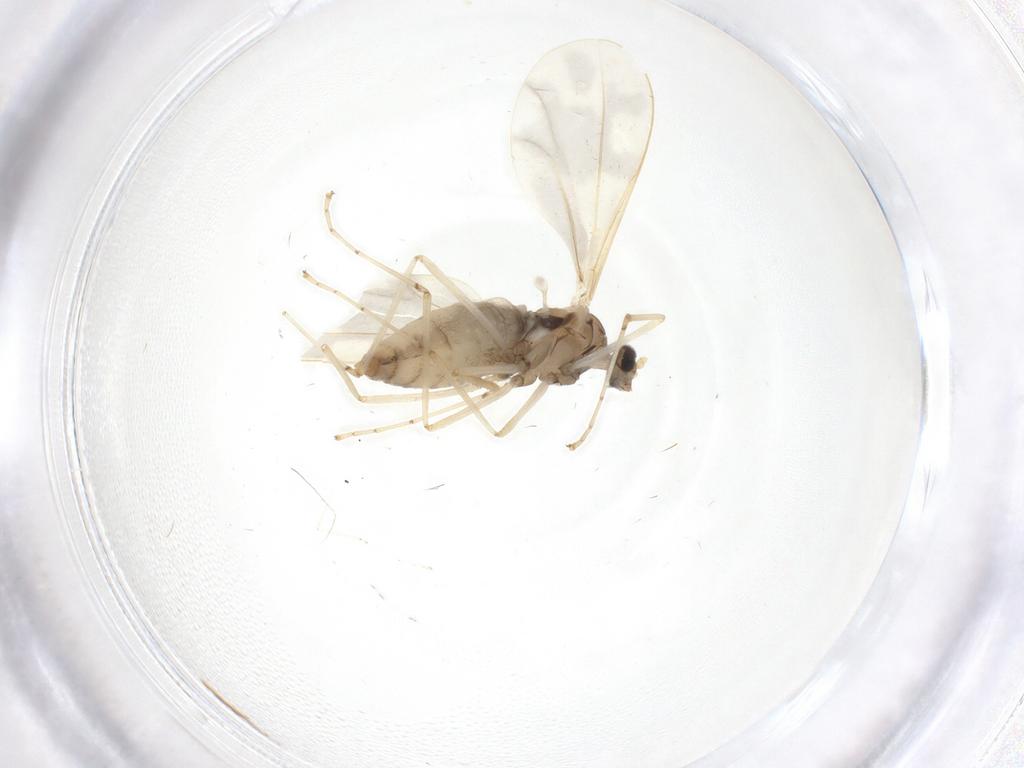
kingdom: Animalia
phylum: Arthropoda
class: Insecta
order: Diptera
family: Cecidomyiidae
